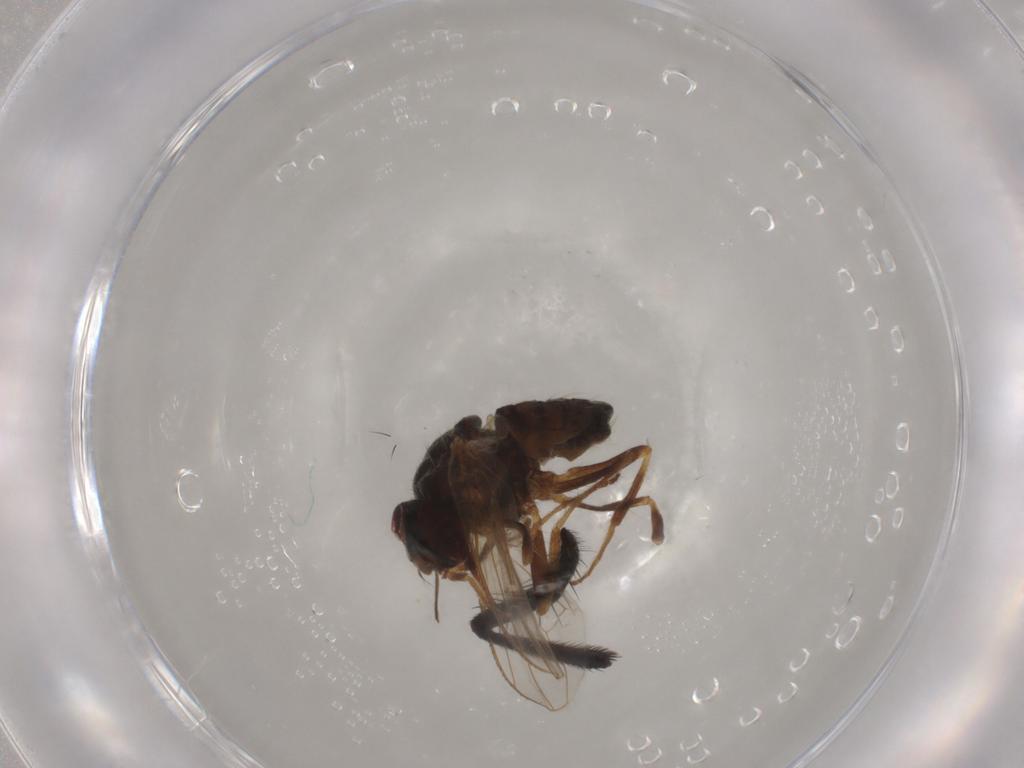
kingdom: Animalia
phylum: Arthropoda
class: Insecta
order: Diptera
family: Muscidae
